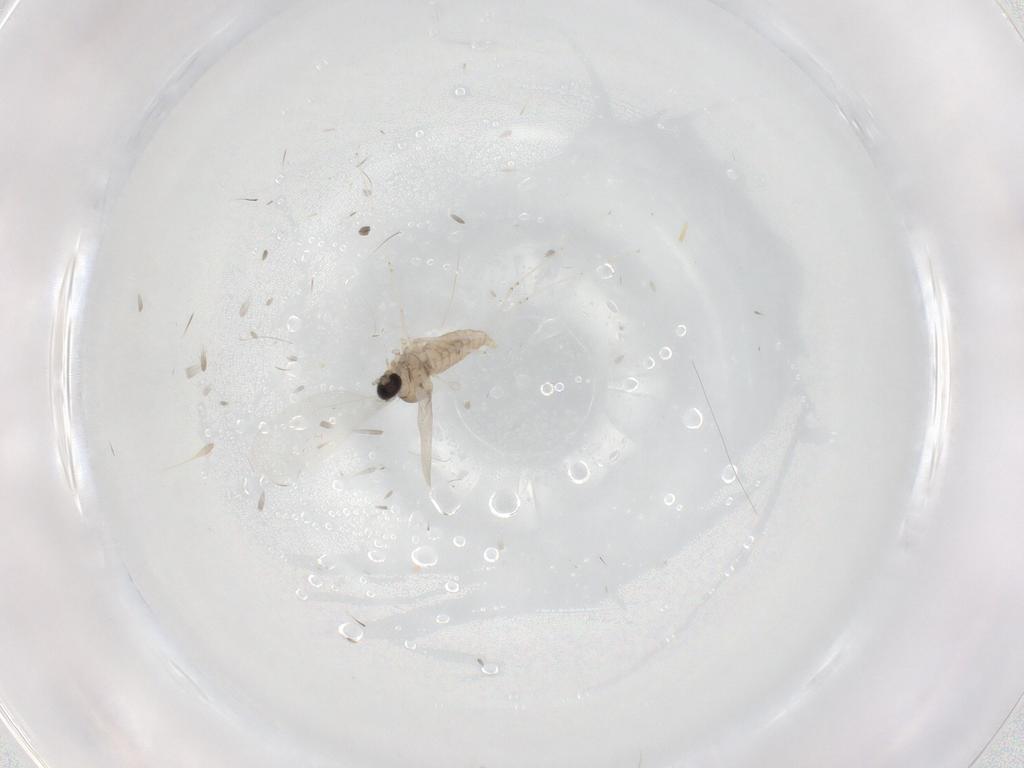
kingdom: Animalia
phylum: Arthropoda
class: Insecta
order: Diptera
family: Cecidomyiidae
